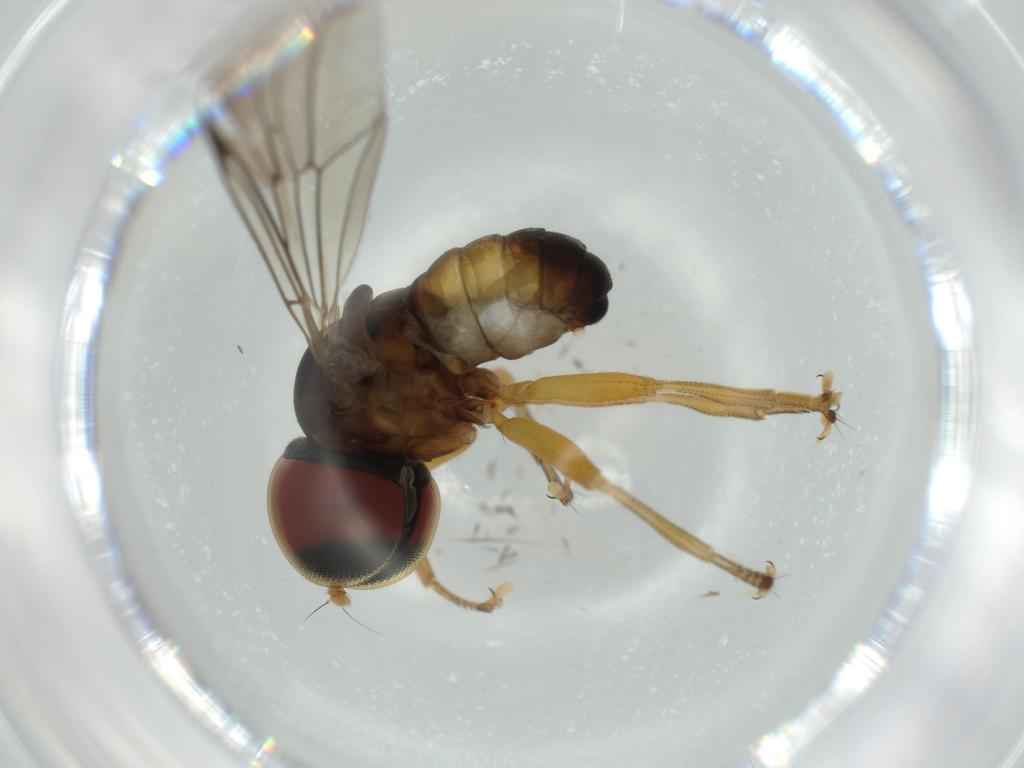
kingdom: Animalia
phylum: Arthropoda
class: Insecta
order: Diptera
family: Pipunculidae
